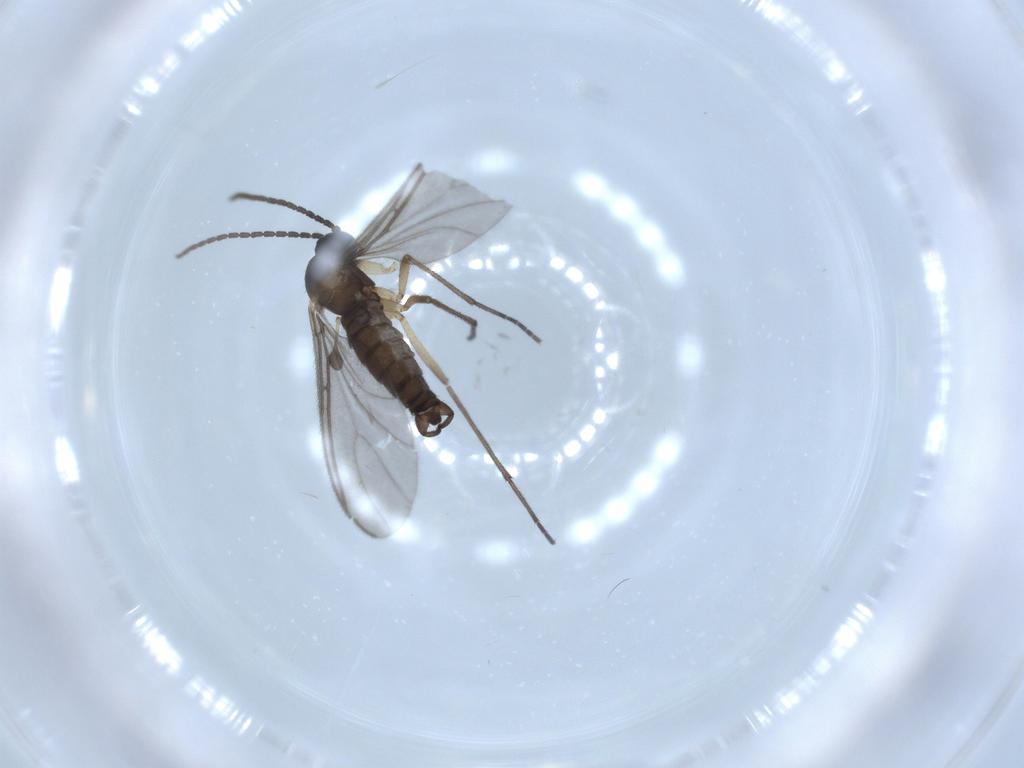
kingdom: Animalia
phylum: Arthropoda
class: Insecta
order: Diptera
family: Sciaridae
